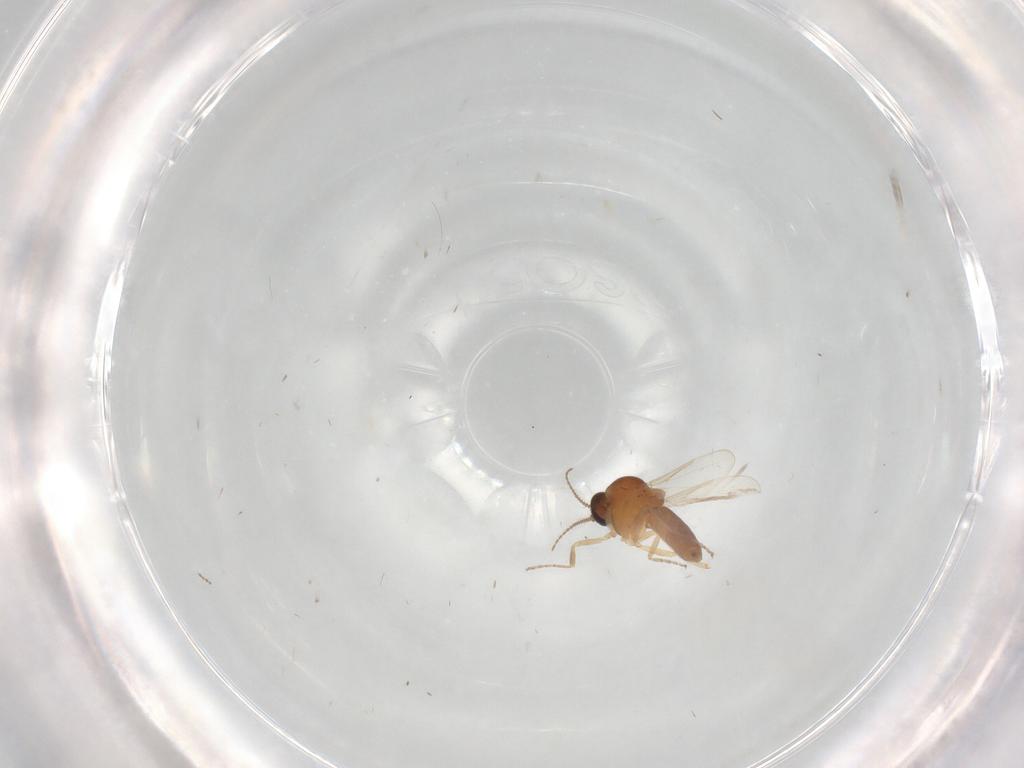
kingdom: Animalia
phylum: Arthropoda
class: Insecta
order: Diptera
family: Ceratopogonidae
